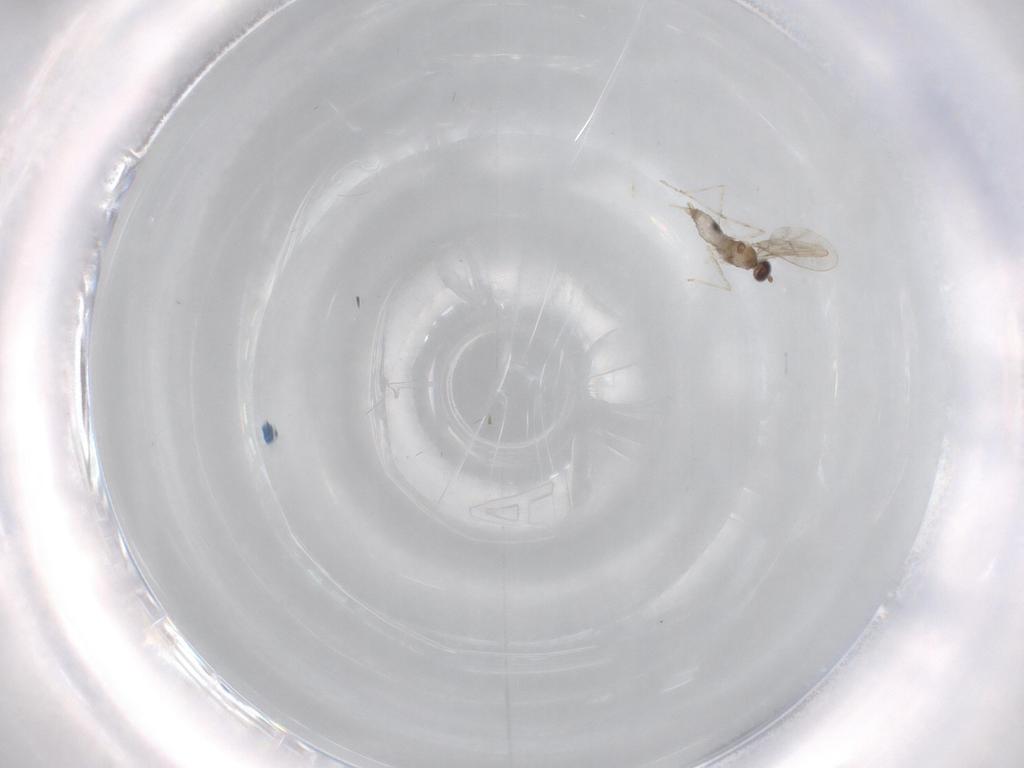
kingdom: Animalia
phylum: Arthropoda
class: Insecta
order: Diptera
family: Cecidomyiidae
